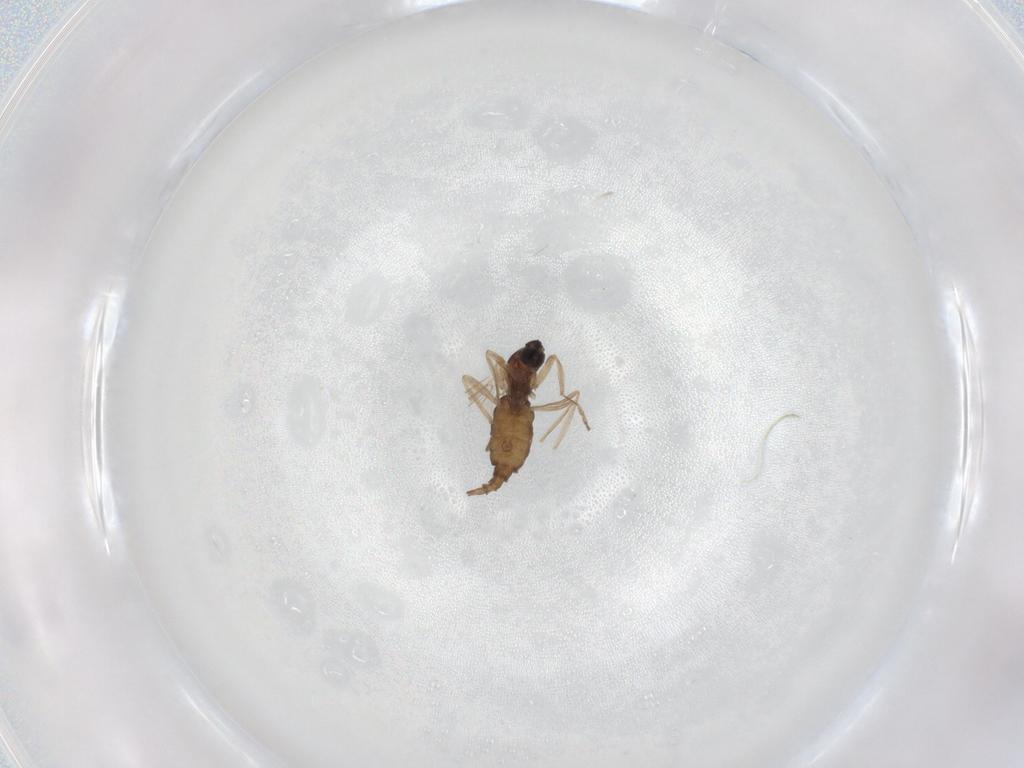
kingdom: Animalia
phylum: Arthropoda
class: Insecta
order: Diptera
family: Cecidomyiidae
